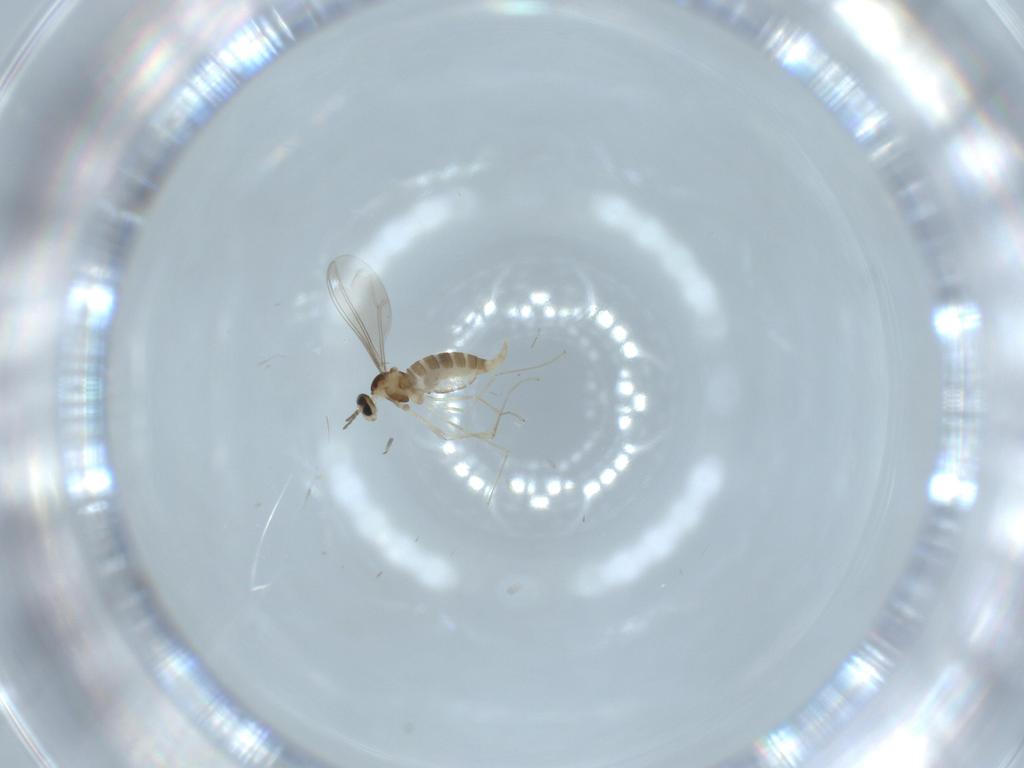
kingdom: Animalia
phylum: Arthropoda
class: Insecta
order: Diptera
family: Cecidomyiidae
